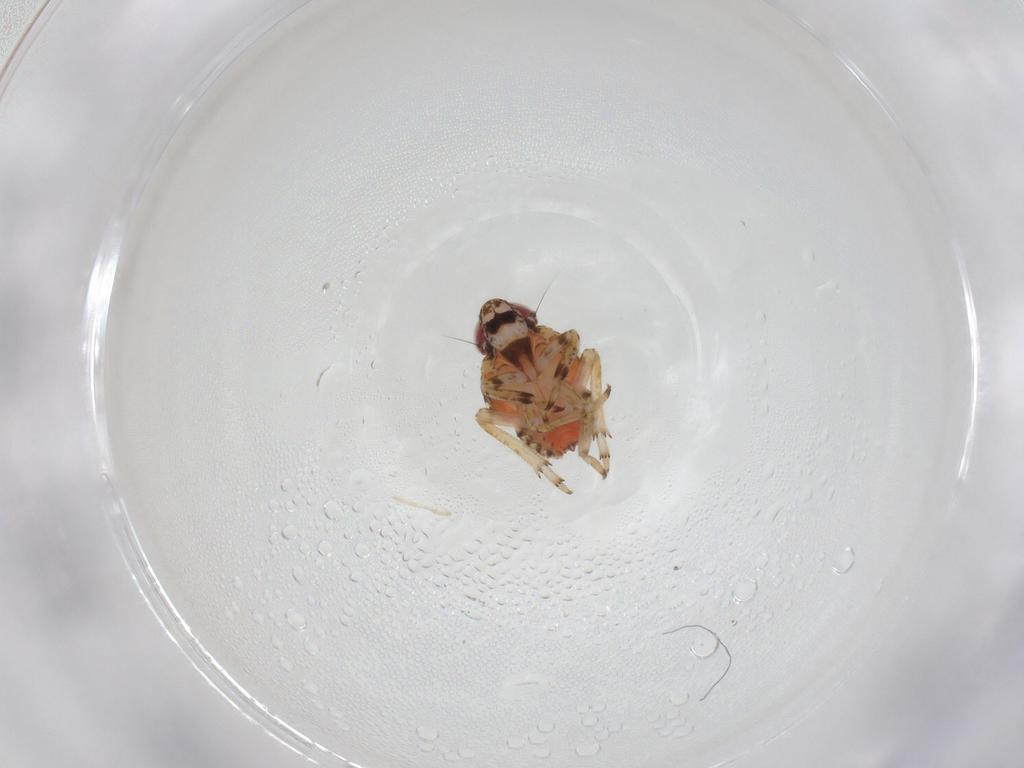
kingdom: Animalia
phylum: Arthropoda
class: Insecta
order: Hemiptera
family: Issidae
